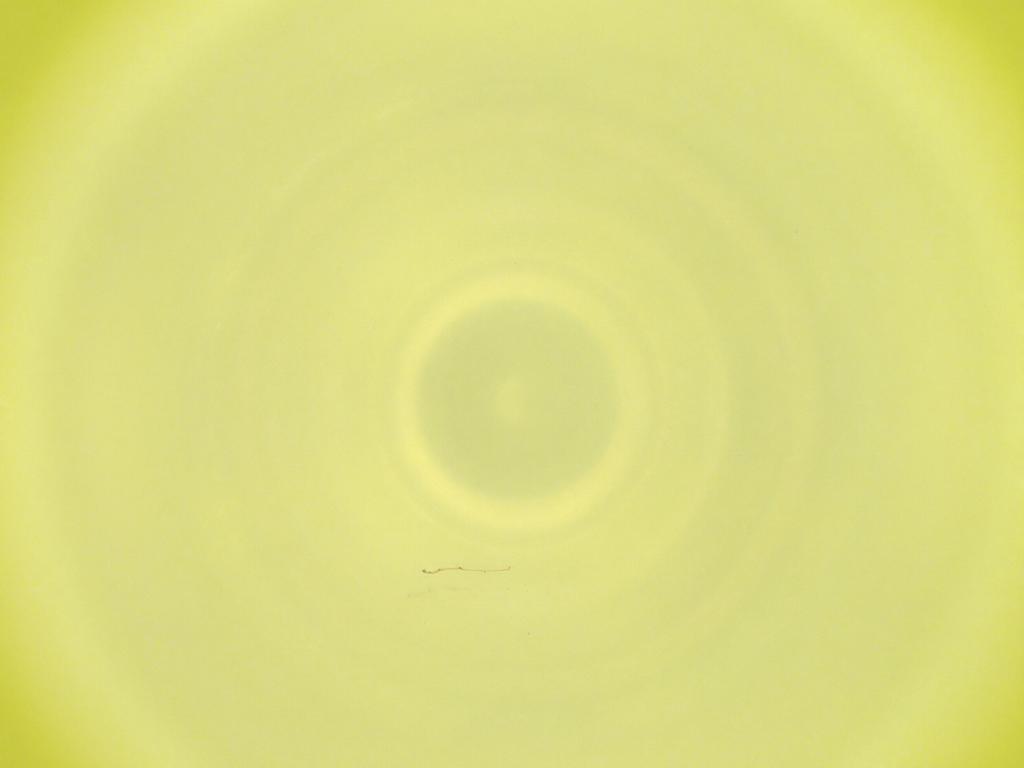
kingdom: Animalia
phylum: Arthropoda
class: Insecta
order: Diptera
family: Cecidomyiidae
